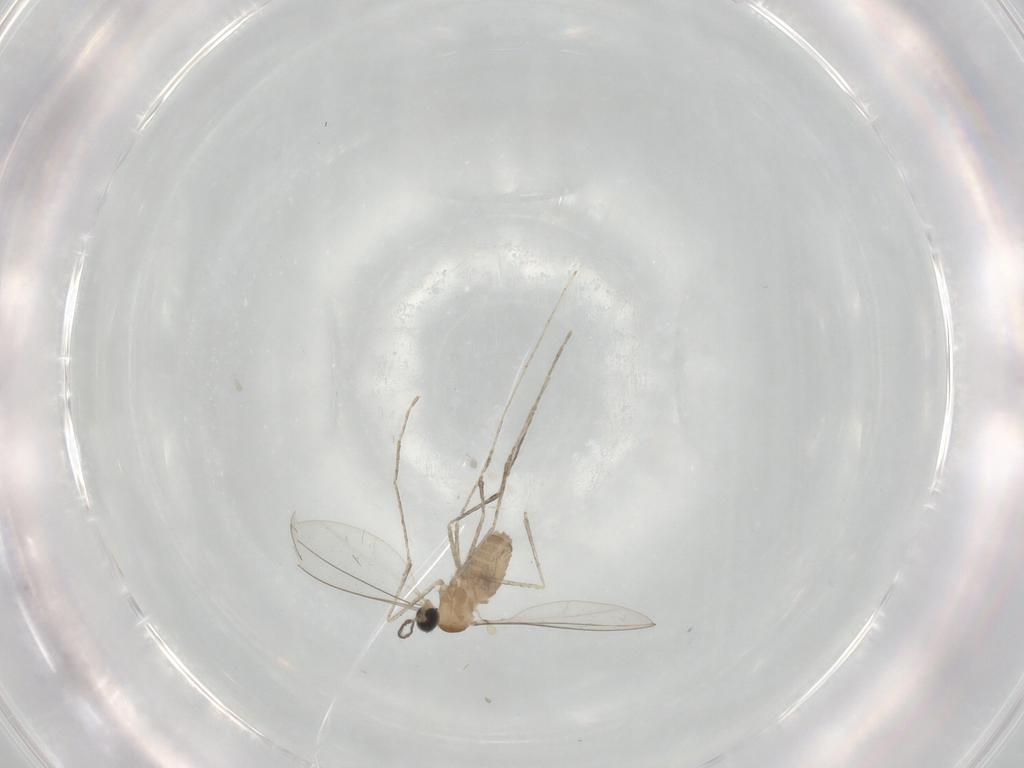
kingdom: Animalia
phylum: Arthropoda
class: Insecta
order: Diptera
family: Cecidomyiidae
